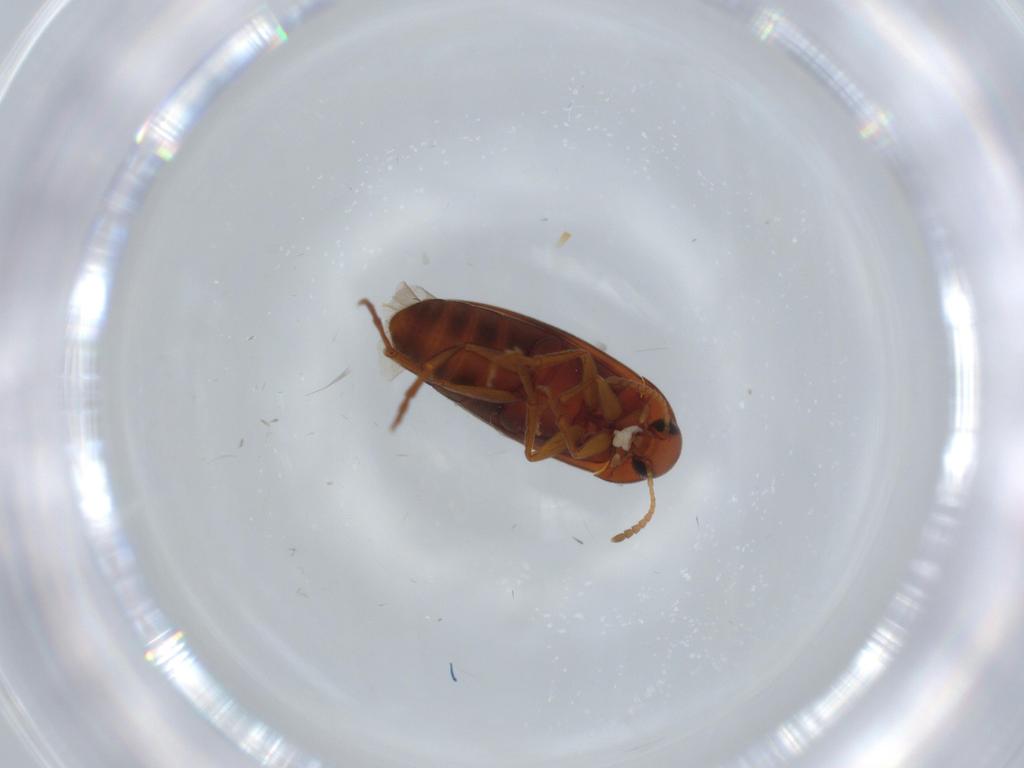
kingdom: Animalia
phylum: Arthropoda
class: Insecta
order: Coleoptera
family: Scraptiidae
